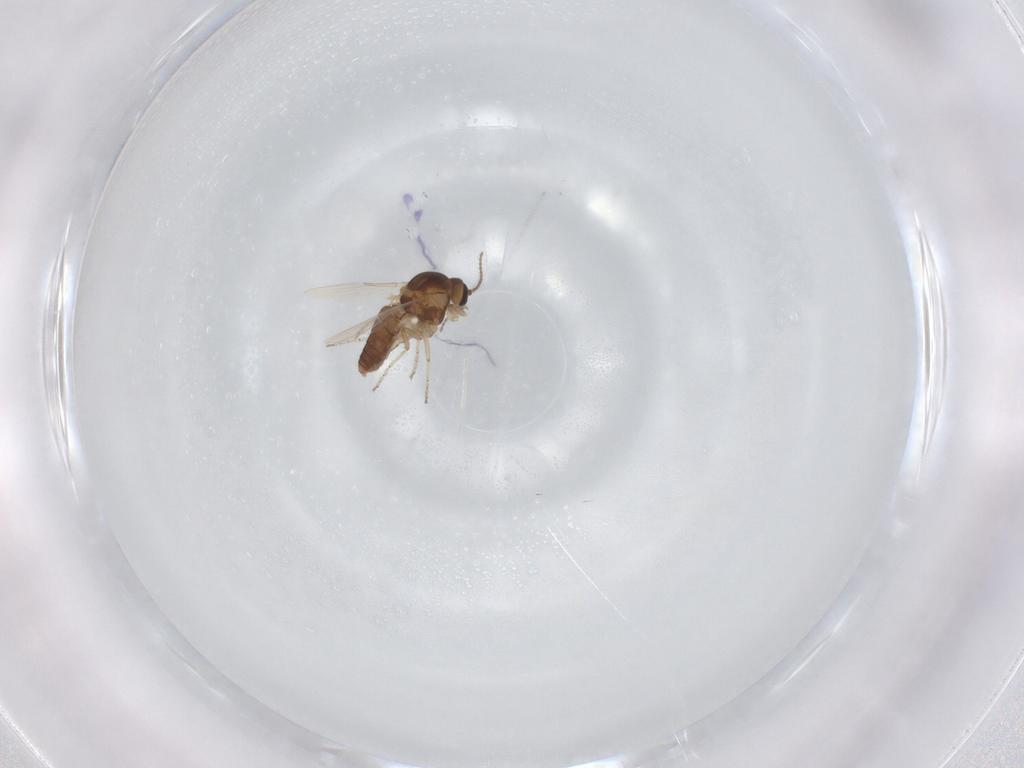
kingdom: Animalia
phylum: Arthropoda
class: Insecta
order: Diptera
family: Ceratopogonidae
